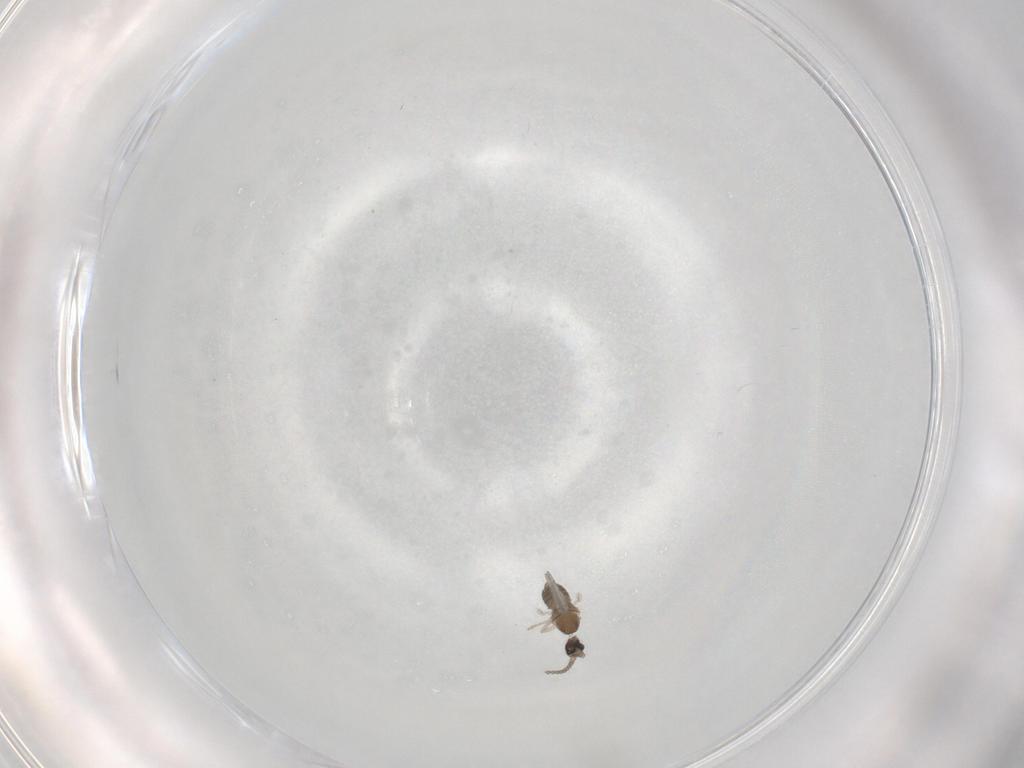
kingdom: Animalia
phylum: Arthropoda
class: Insecta
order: Diptera
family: Cecidomyiidae
